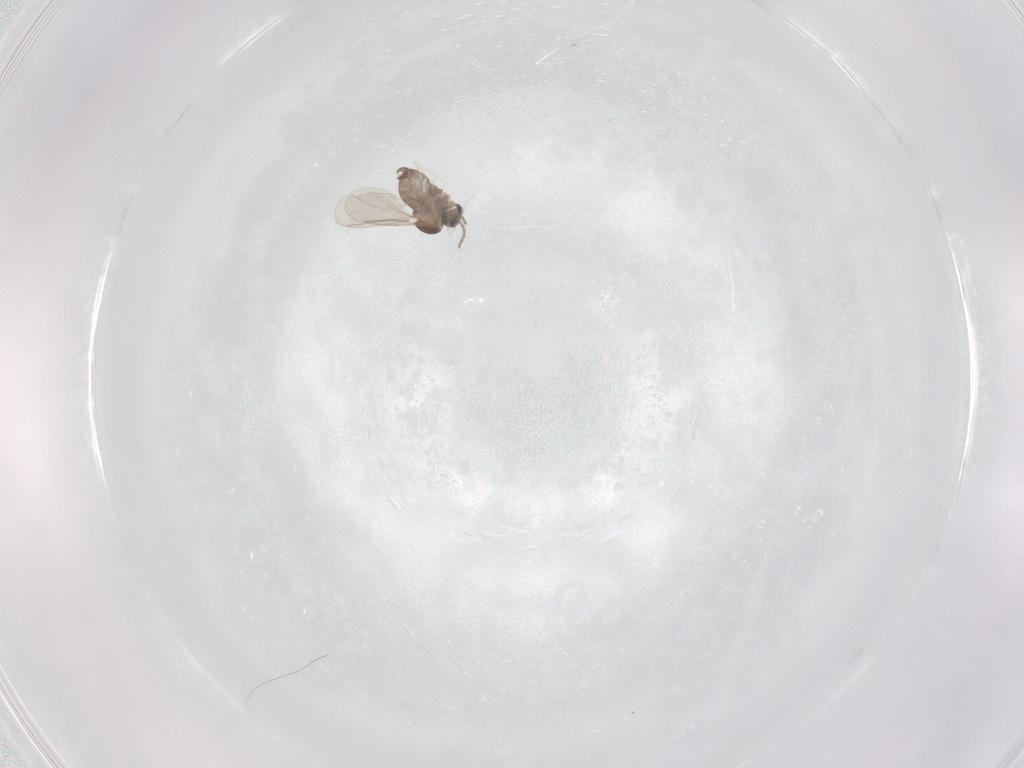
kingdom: Animalia
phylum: Arthropoda
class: Insecta
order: Diptera
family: Cecidomyiidae
